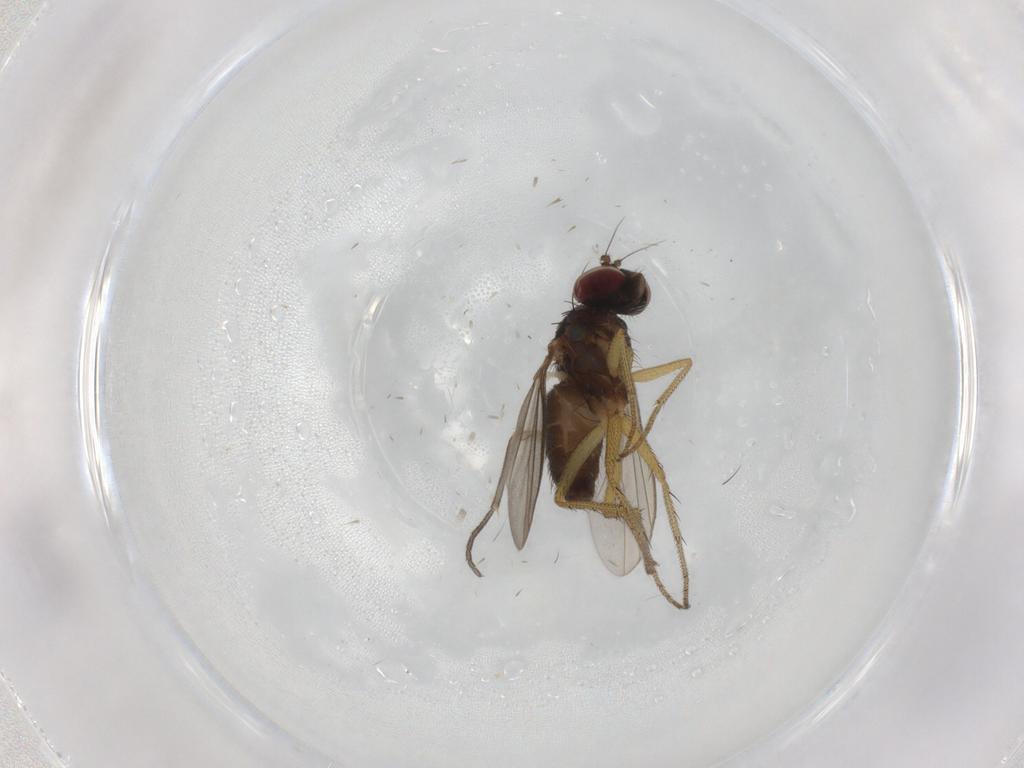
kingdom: Animalia
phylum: Arthropoda
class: Insecta
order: Diptera
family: Sciaridae
